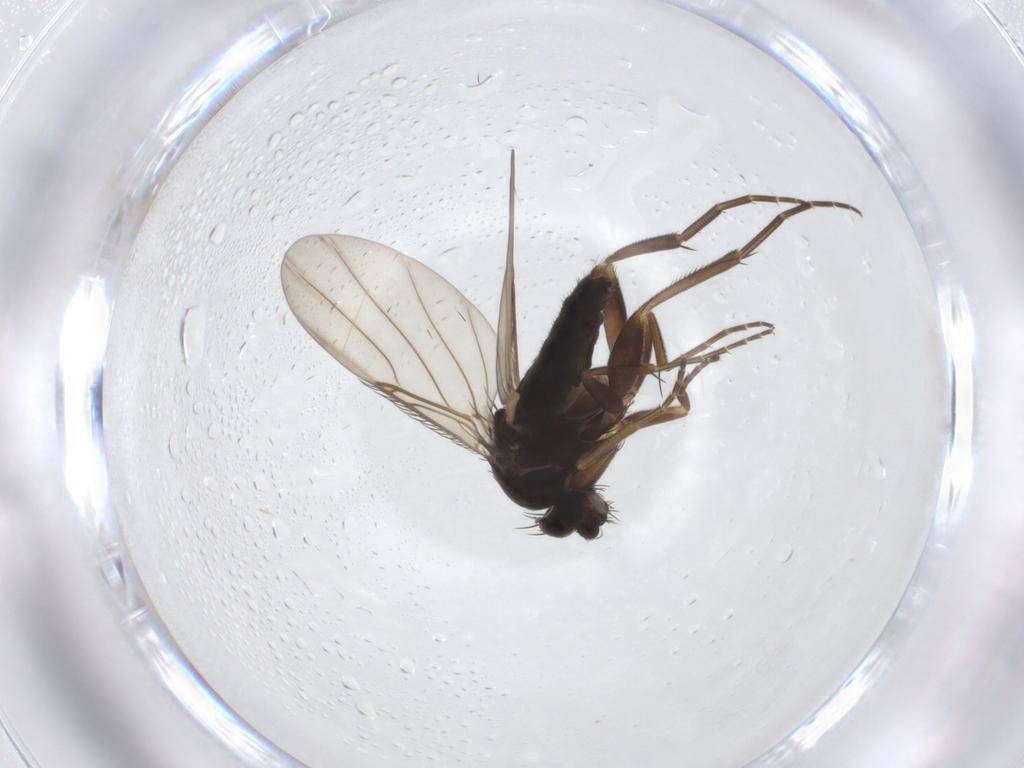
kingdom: Animalia
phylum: Arthropoda
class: Insecta
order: Diptera
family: Phoridae
